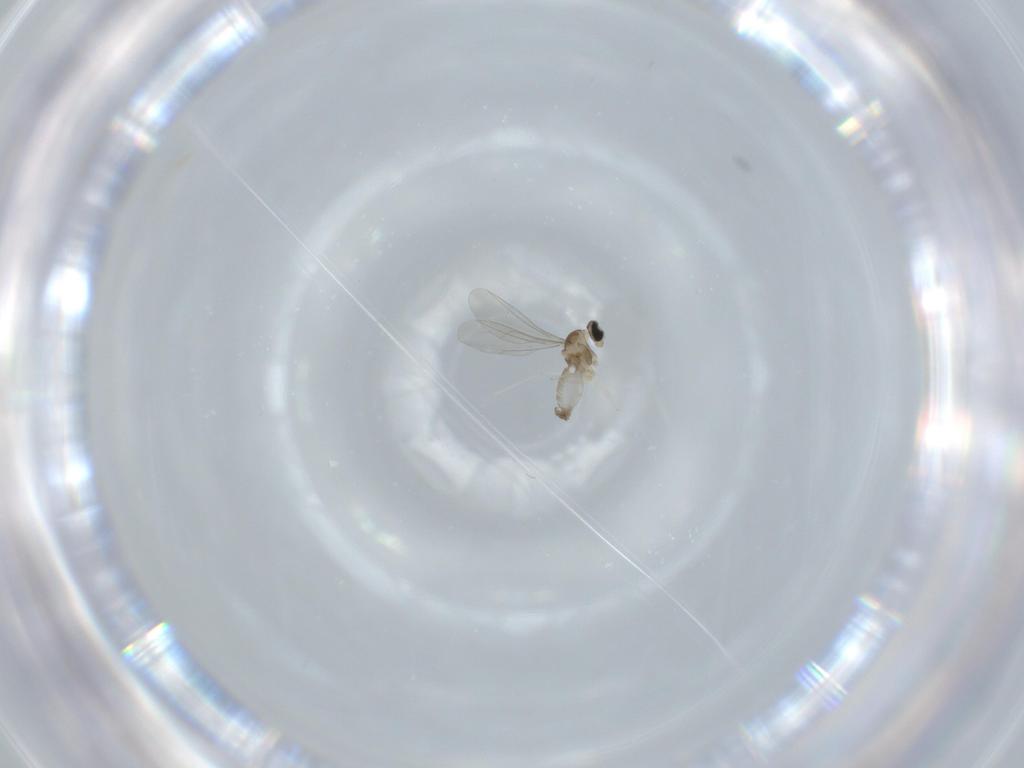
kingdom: Animalia
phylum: Arthropoda
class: Insecta
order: Diptera
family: Cecidomyiidae
